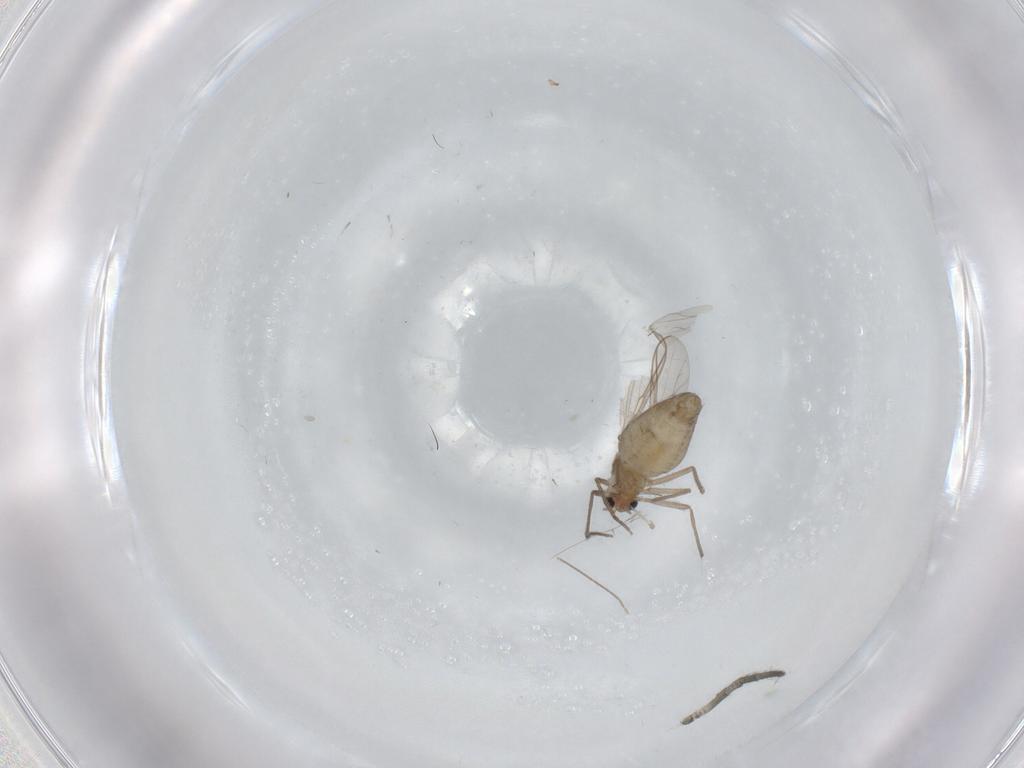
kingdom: Animalia
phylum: Arthropoda
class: Insecta
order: Diptera
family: Chironomidae
